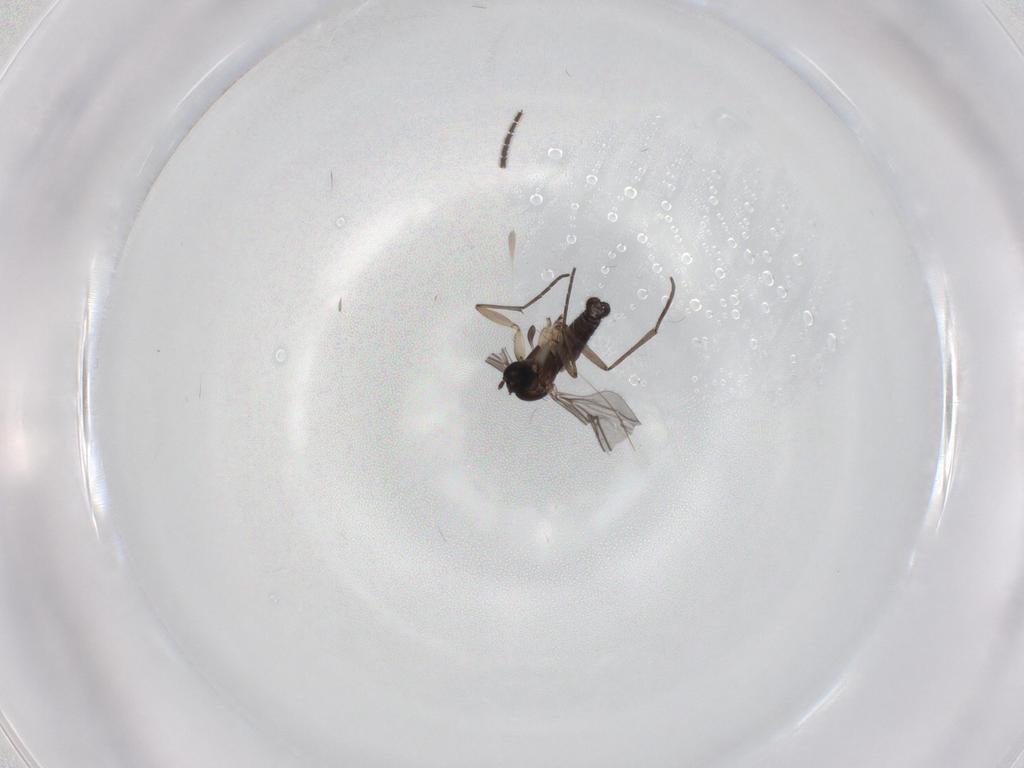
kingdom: Animalia
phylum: Arthropoda
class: Insecta
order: Diptera
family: Sciaridae
